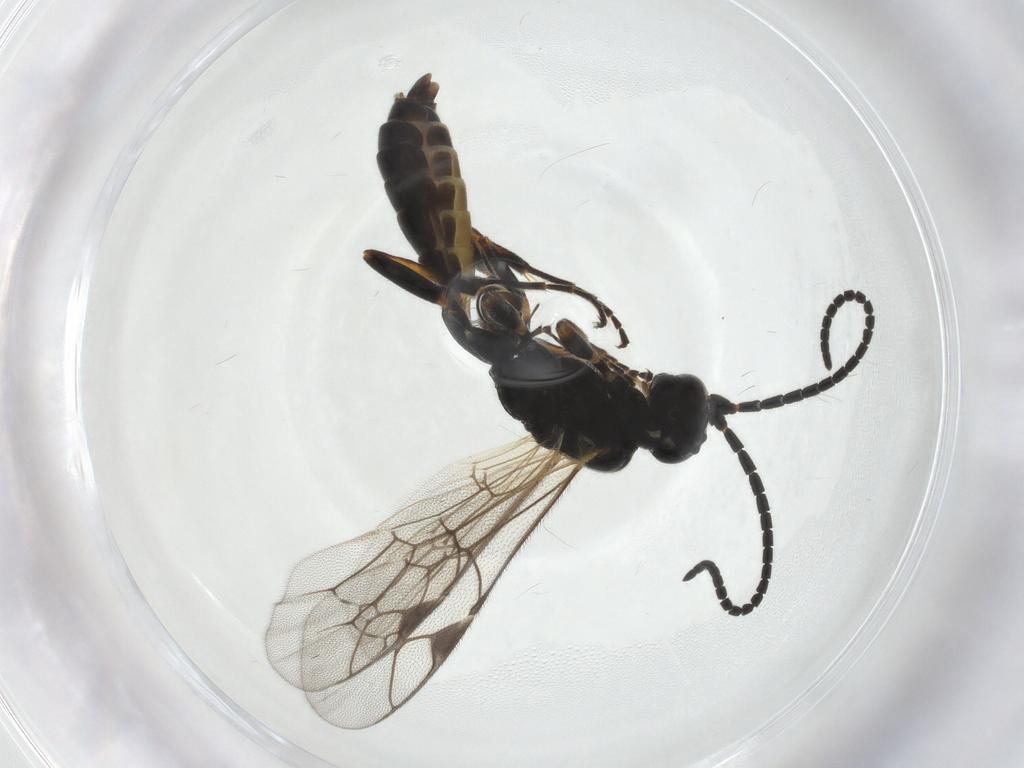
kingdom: Animalia
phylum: Arthropoda
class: Insecta
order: Hymenoptera
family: Ichneumonidae
